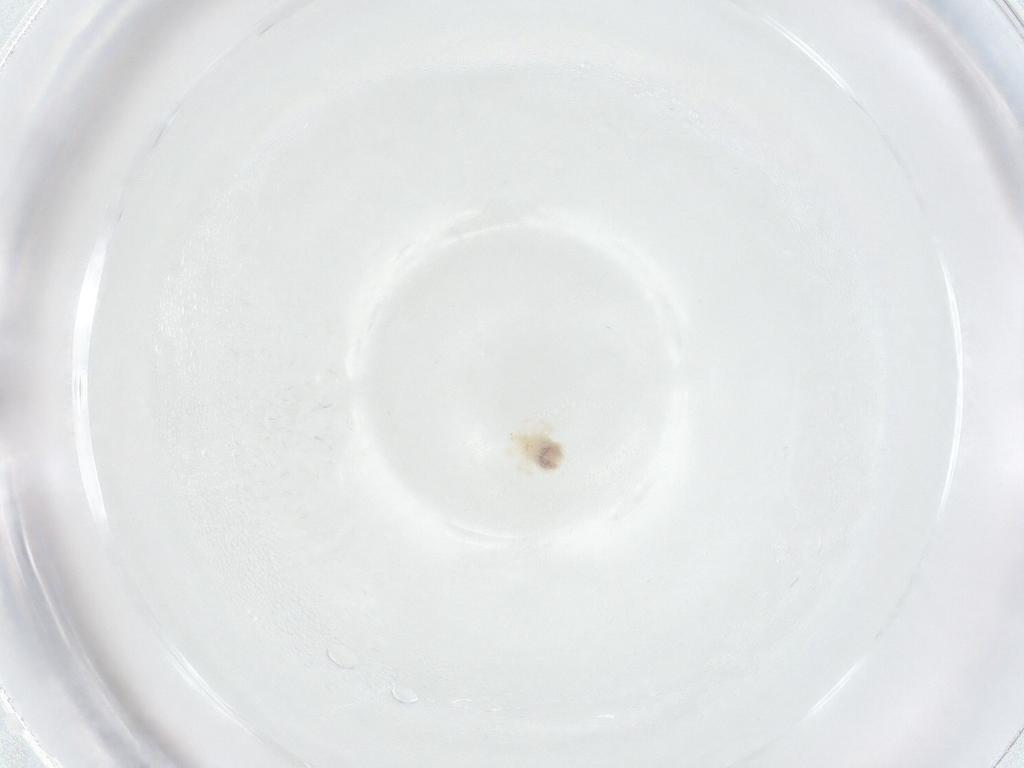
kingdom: Animalia
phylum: Arthropoda
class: Arachnida
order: Trombidiformes
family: Anystidae
